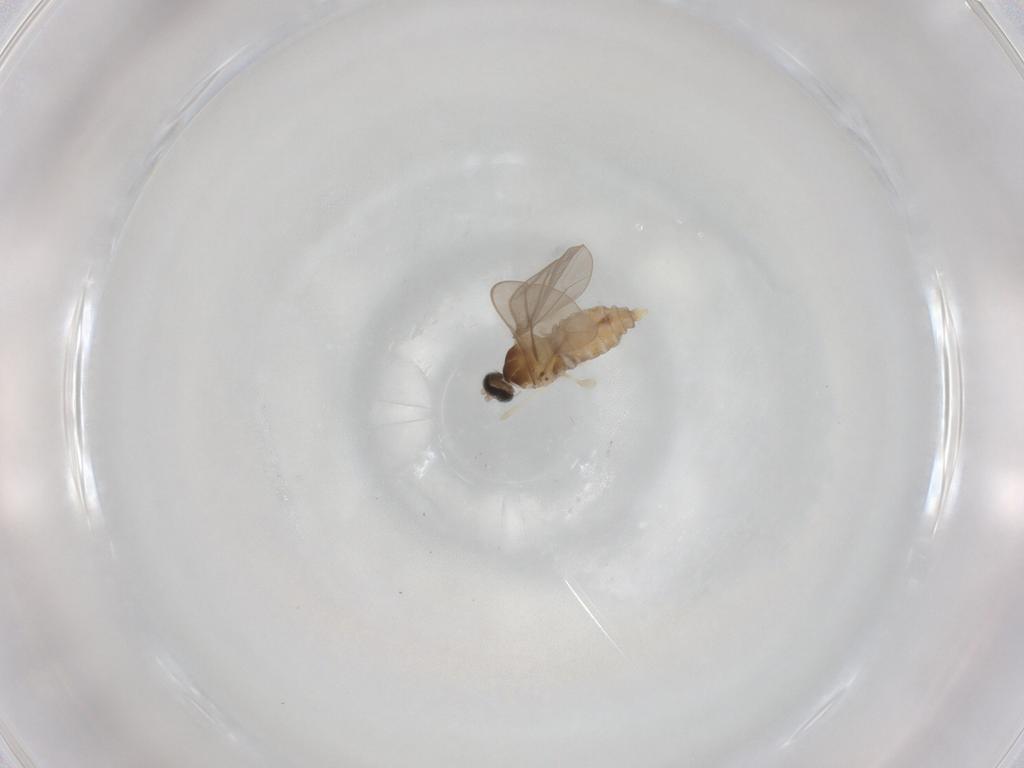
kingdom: Animalia
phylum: Arthropoda
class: Insecta
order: Diptera
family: Cecidomyiidae
